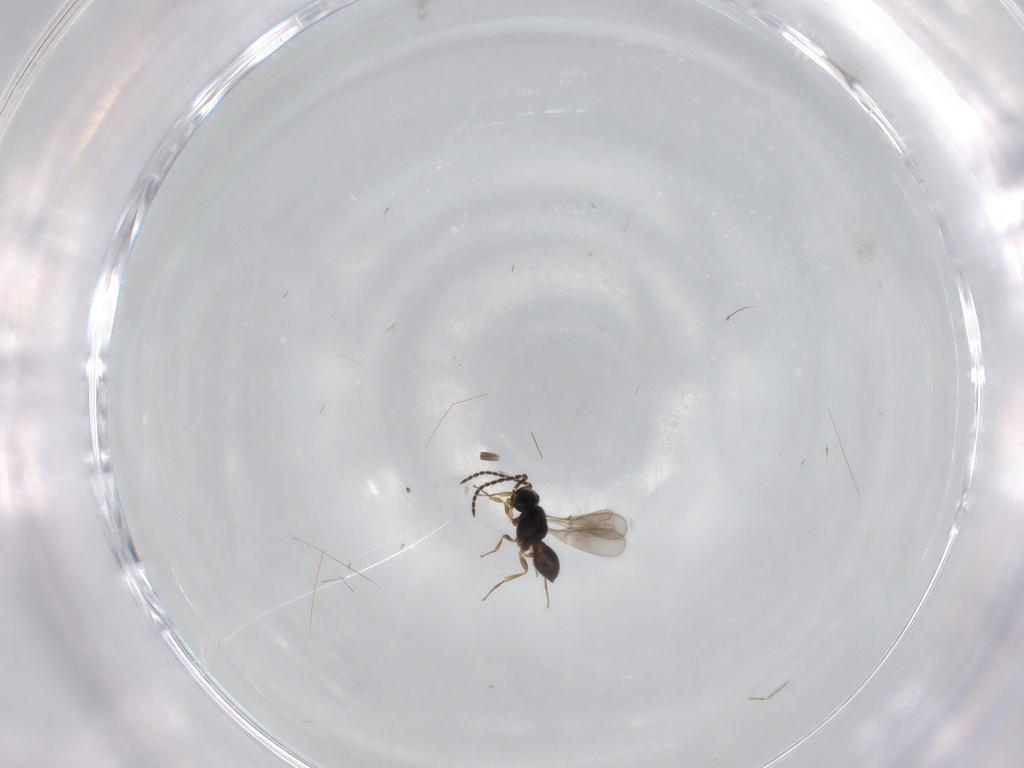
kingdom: Animalia
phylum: Arthropoda
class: Insecta
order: Hymenoptera
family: Scelionidae
